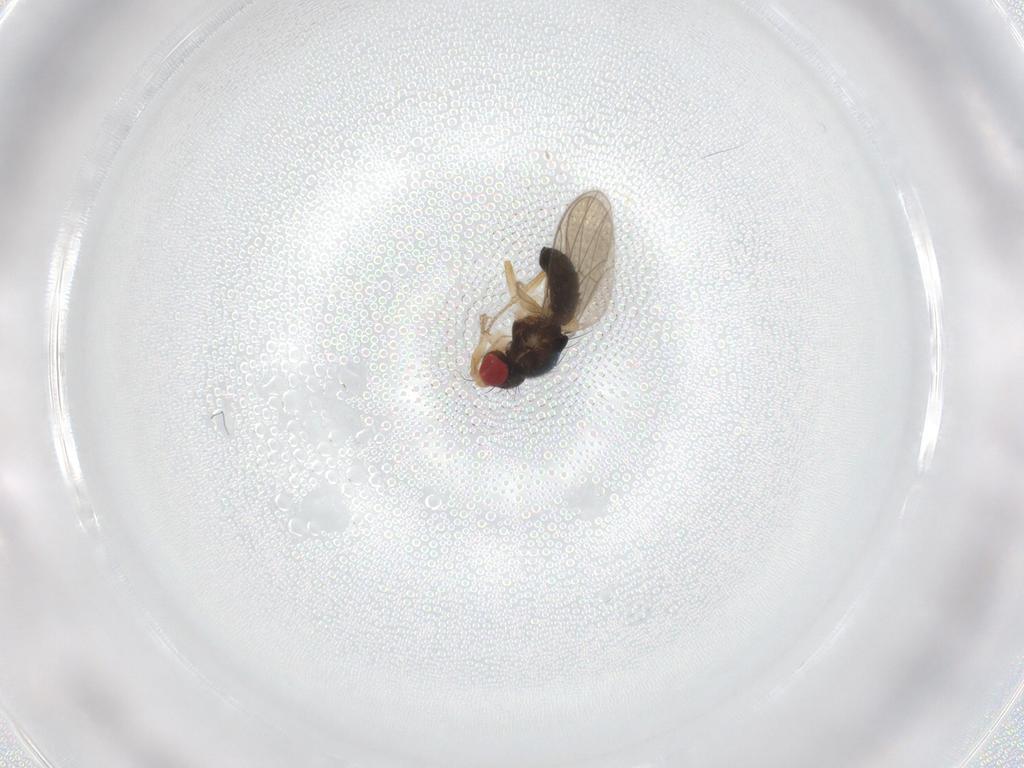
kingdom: Animalia
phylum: Arthropoda
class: Insecta
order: Diptera
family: Drosophilidae
